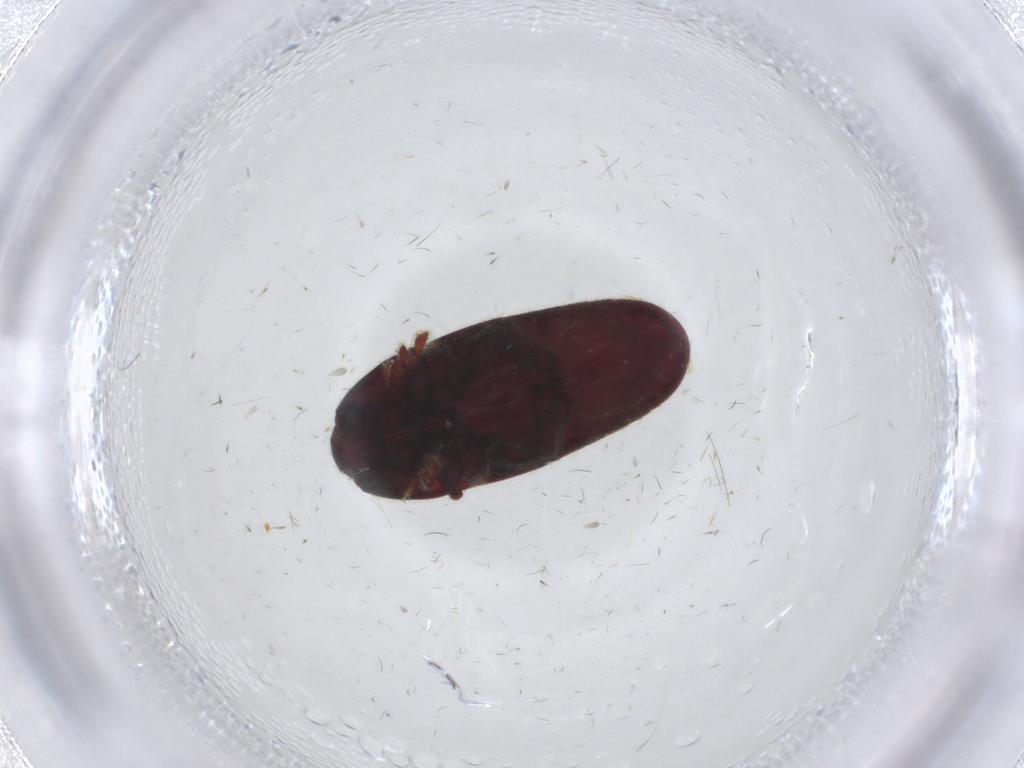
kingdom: Animalia
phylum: Arthropoda
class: Insecta
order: Coleoptera
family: Throscidae
